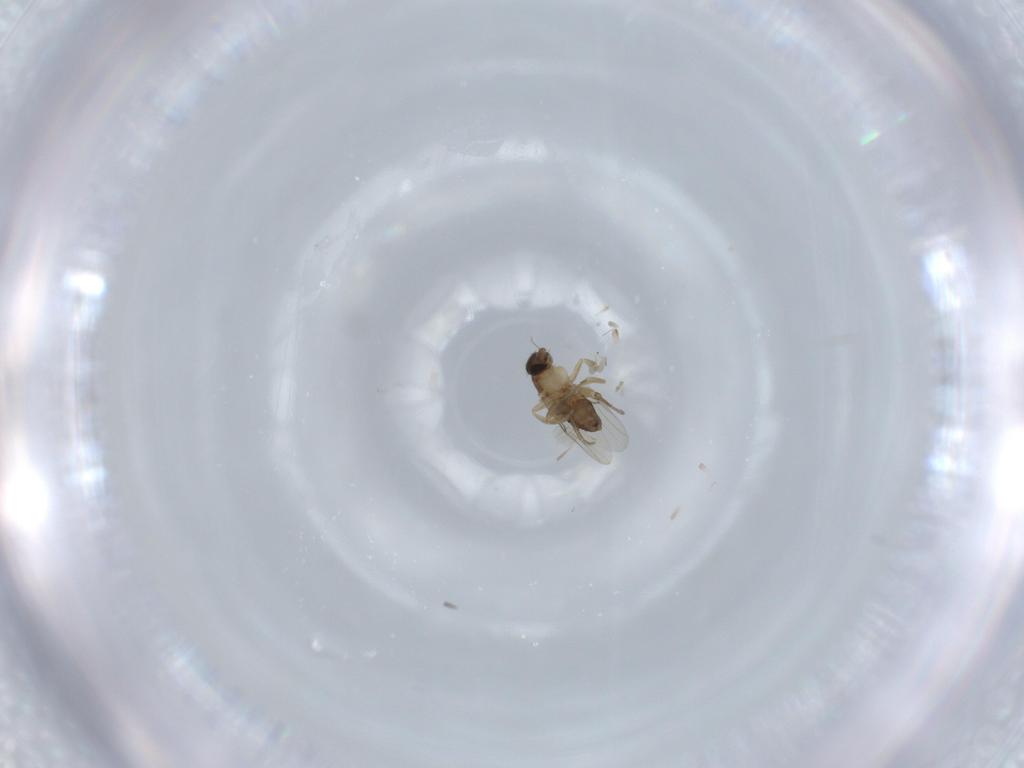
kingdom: Animalia
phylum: Arthropoda
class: Insecta
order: Diptera
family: Phoridae
